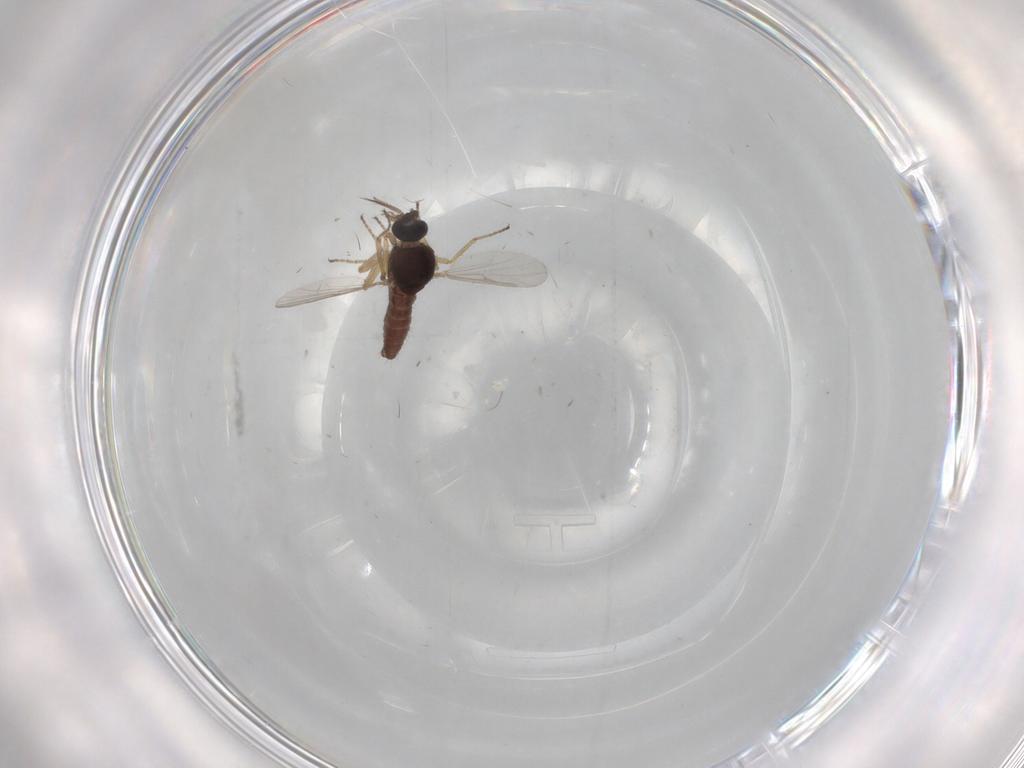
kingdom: Animalia
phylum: Arthropoda
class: Insecta
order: Diptera
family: Ceratopogonidae
